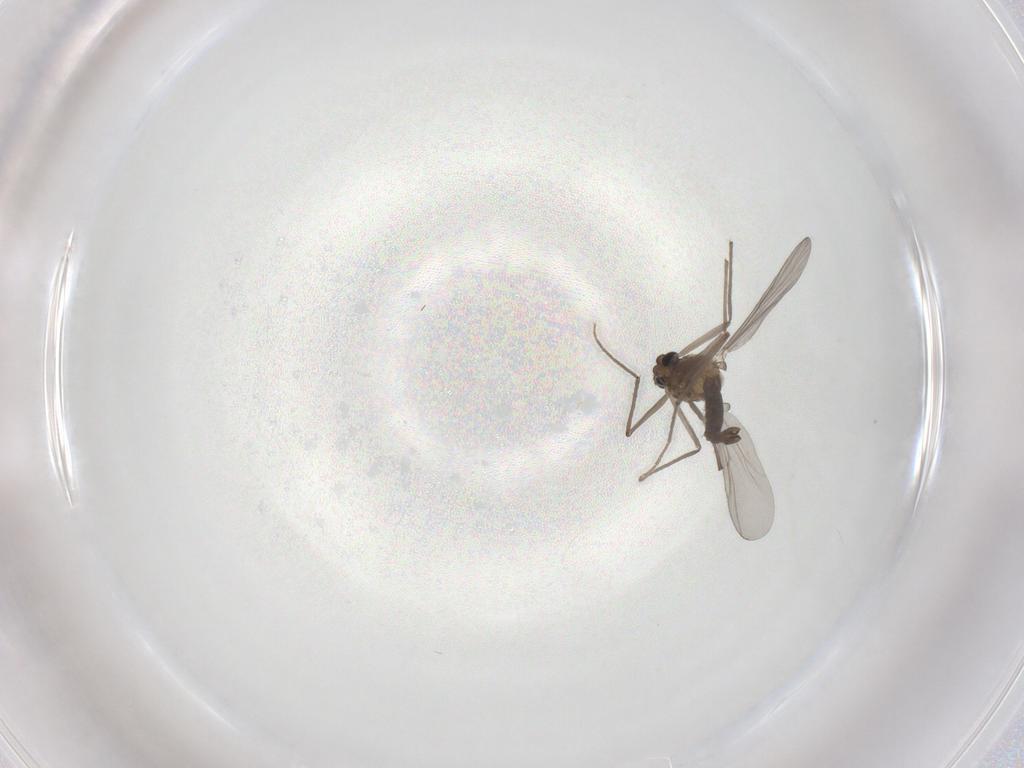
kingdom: Animalia
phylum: Arthropoda
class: Insecta
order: Diptera
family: Chironomidae
